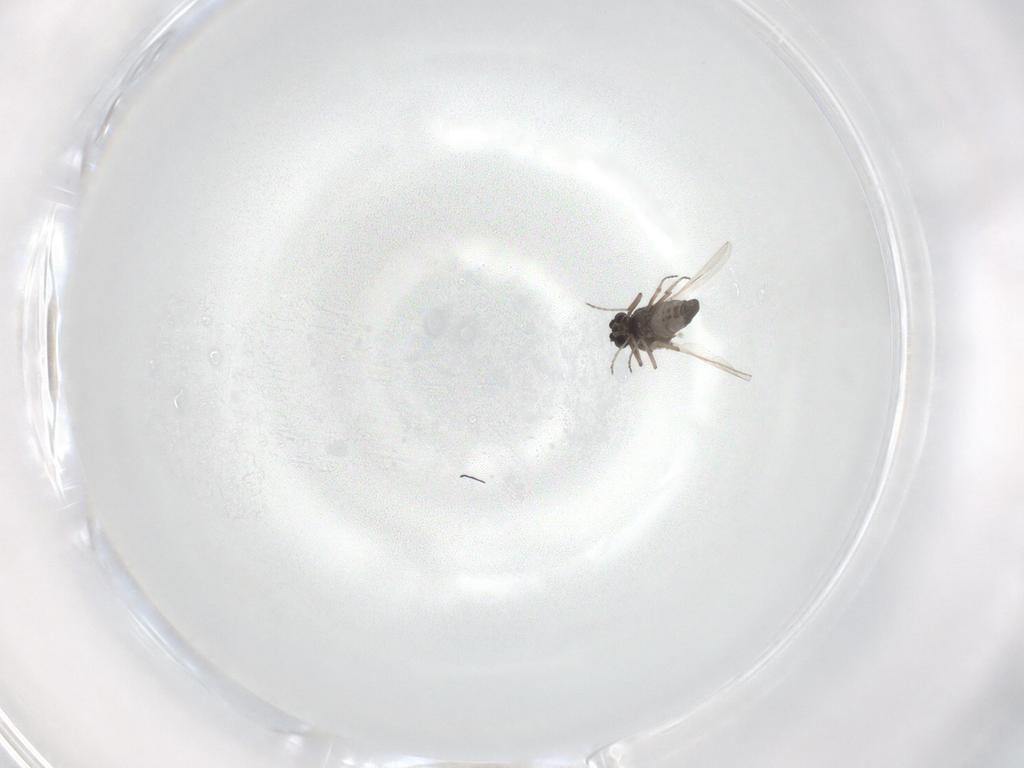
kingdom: Animalia
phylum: Arthropoda
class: Insecta
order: Diptera
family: Ceratopogonidae
